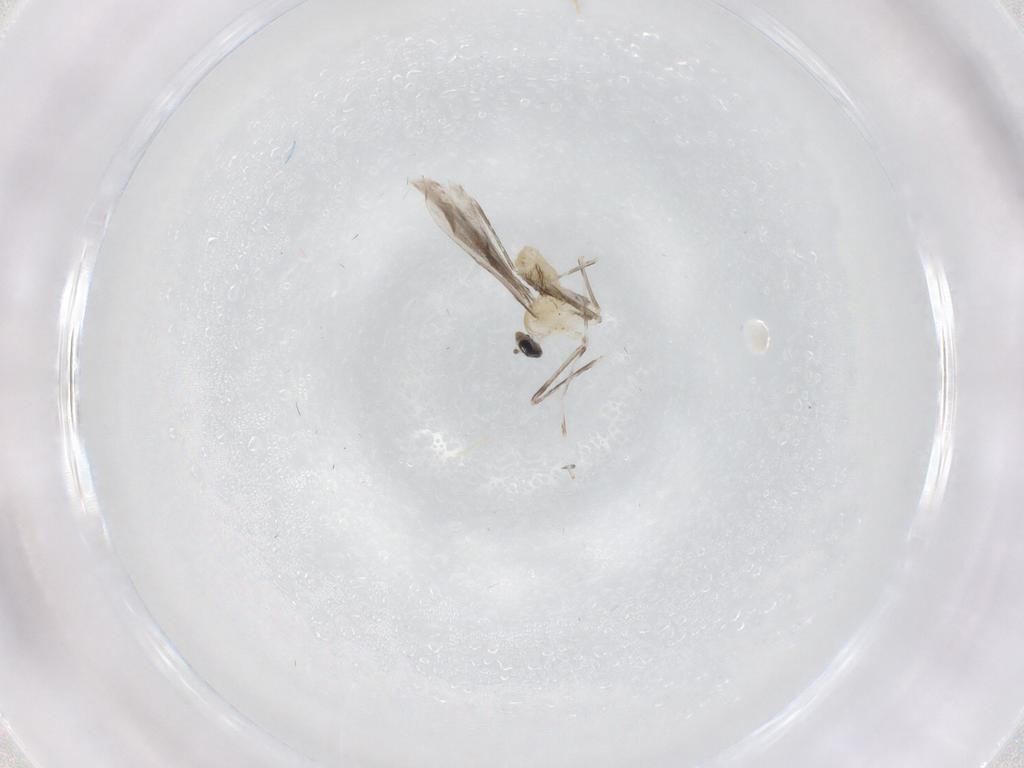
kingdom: Animalia
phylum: Arthropoda
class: Insecta
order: Diptera
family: Cecidomyiidae
